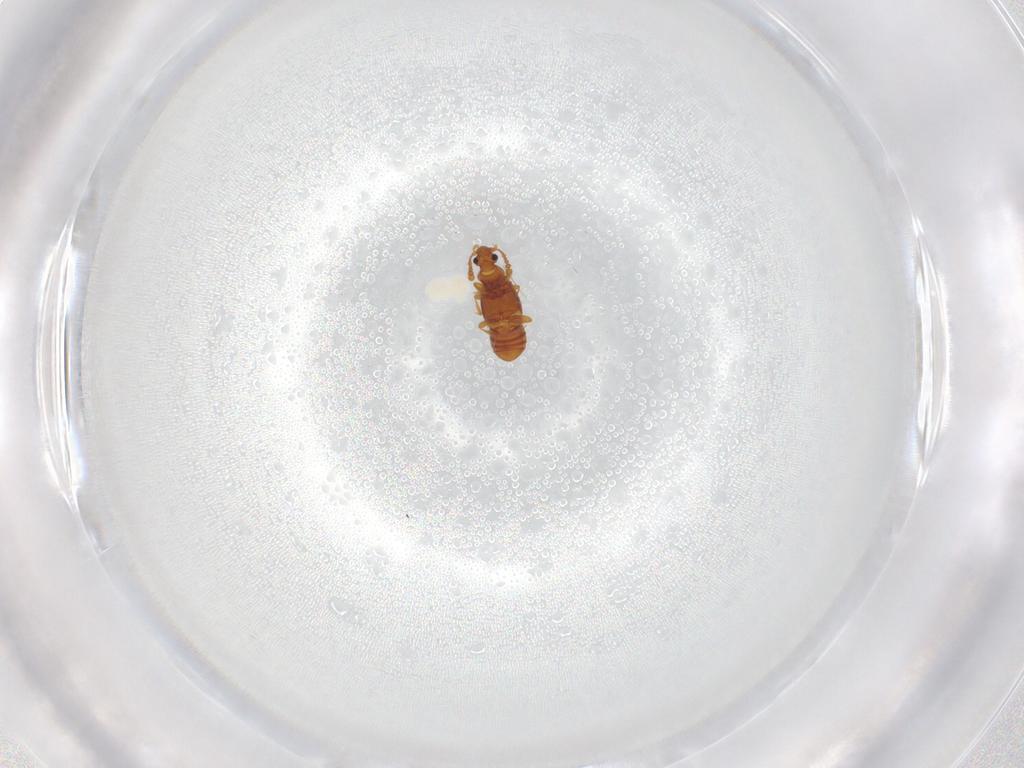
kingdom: Animalia
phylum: Arthropoda
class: Insecta
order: Coleoptera
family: Staphylinidae
